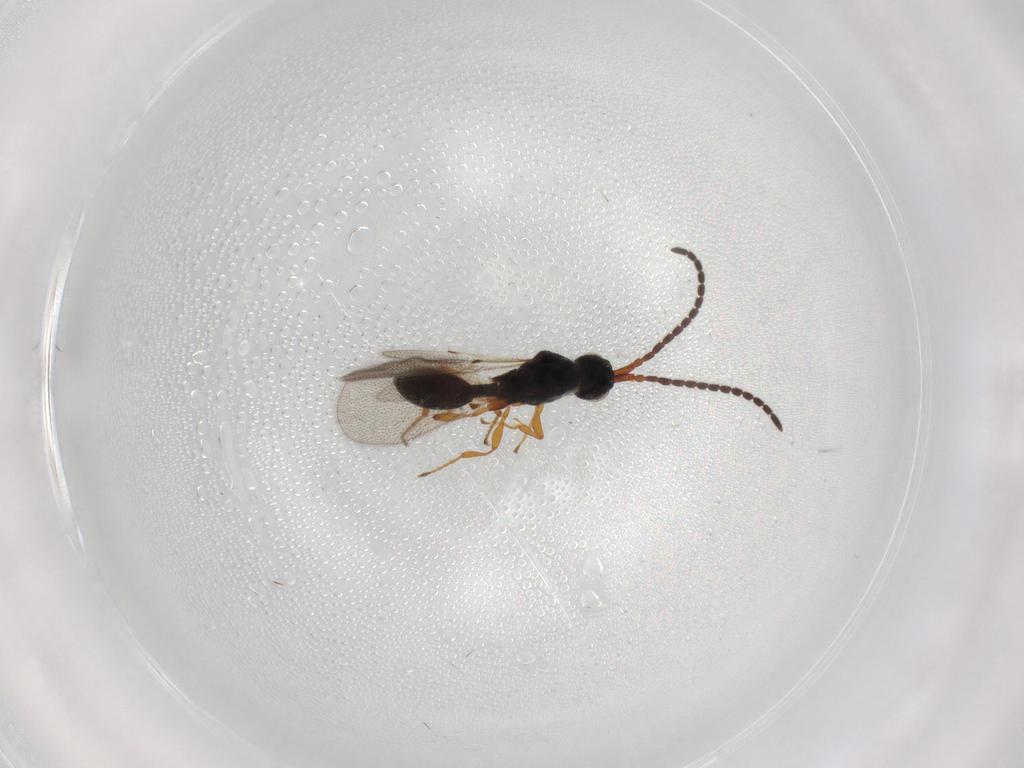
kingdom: Animalia
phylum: Arthropoda
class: Insecta
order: Hymenoptera
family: Diapriidae
